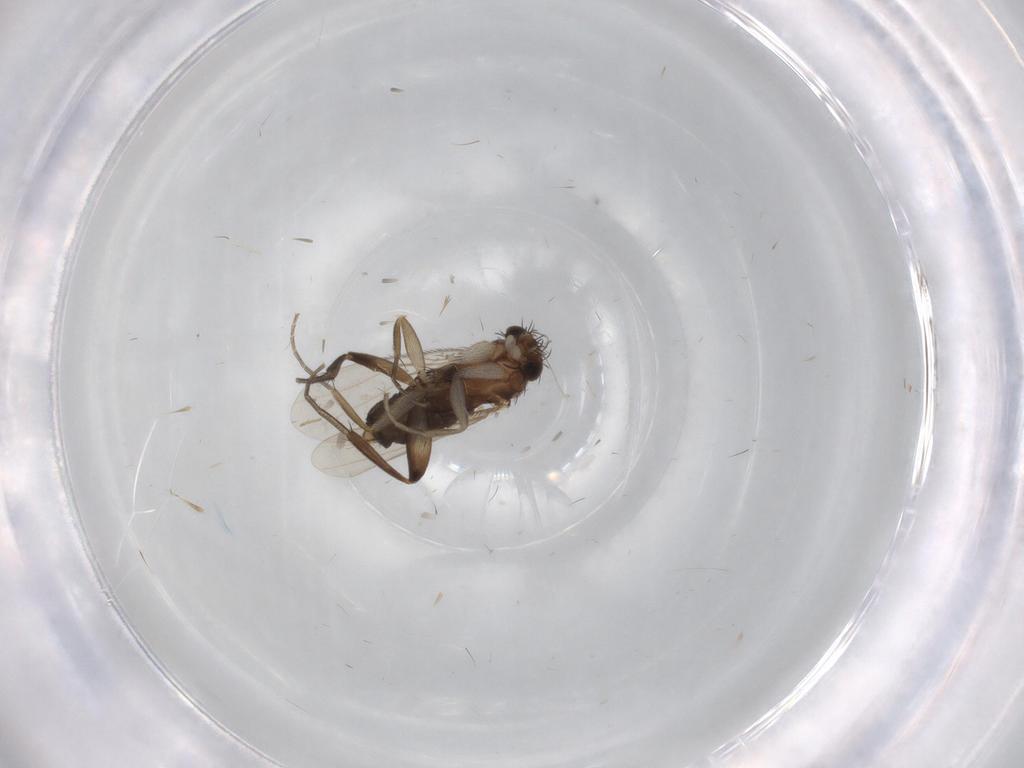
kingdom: Animalia
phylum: Arthropoda
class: Insecta
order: Diptera
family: Phoridae
